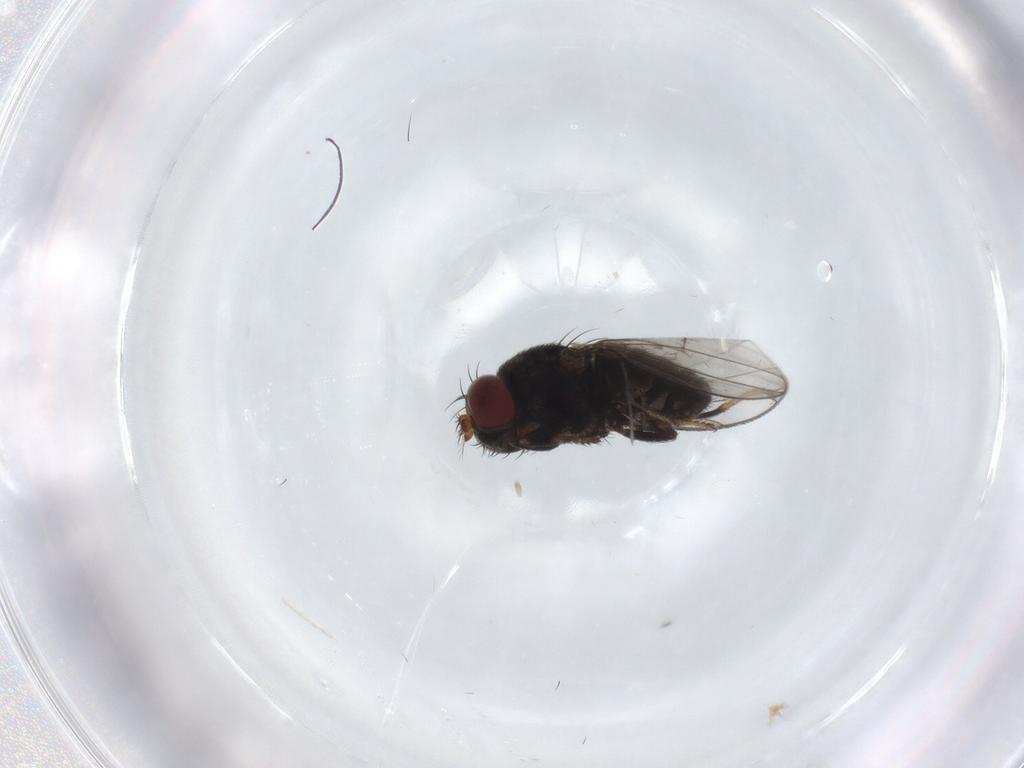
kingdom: Animalia
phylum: Arthropoda
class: Insecta
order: Diptera
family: Ephydridae
